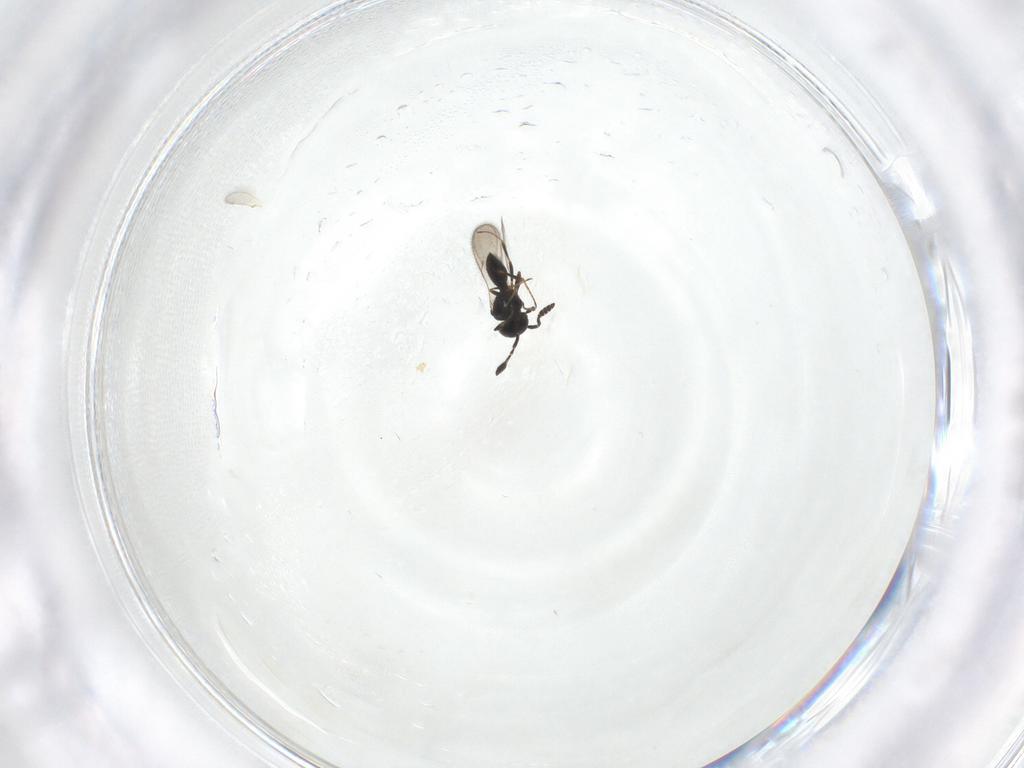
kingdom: Animalia
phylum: Arthropoda
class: Insecta
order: Hymenoptera
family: Scelionidae
